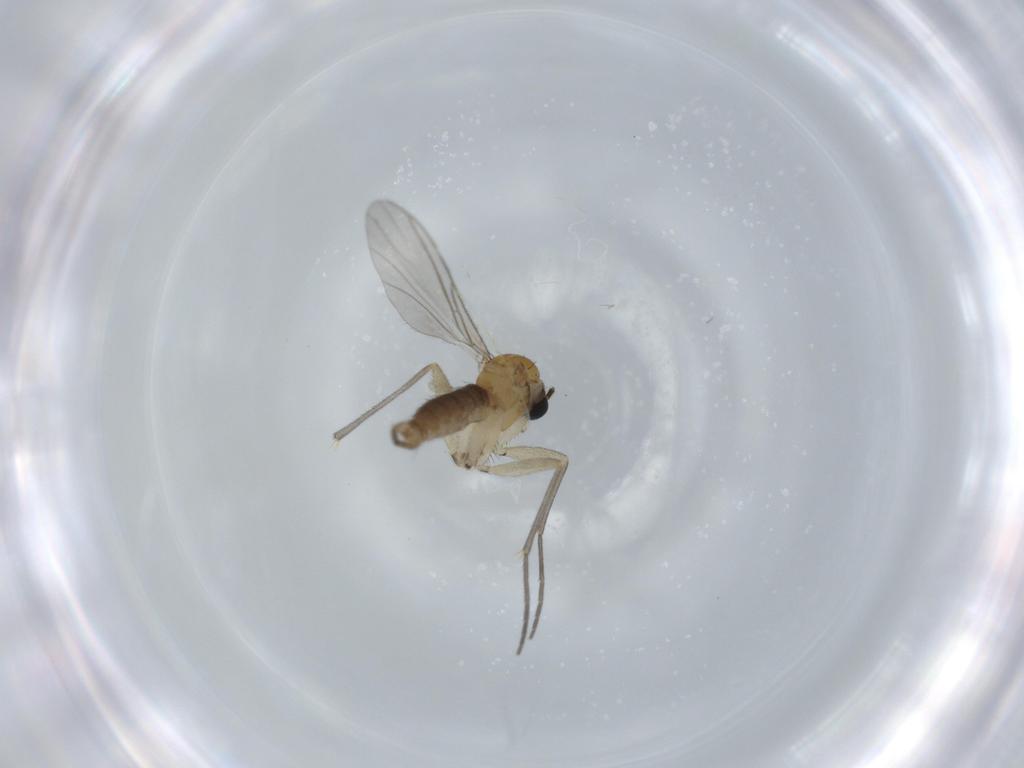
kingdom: Animalia
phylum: Arthropoda
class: Insecta
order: Diptera
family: Sciaridae
